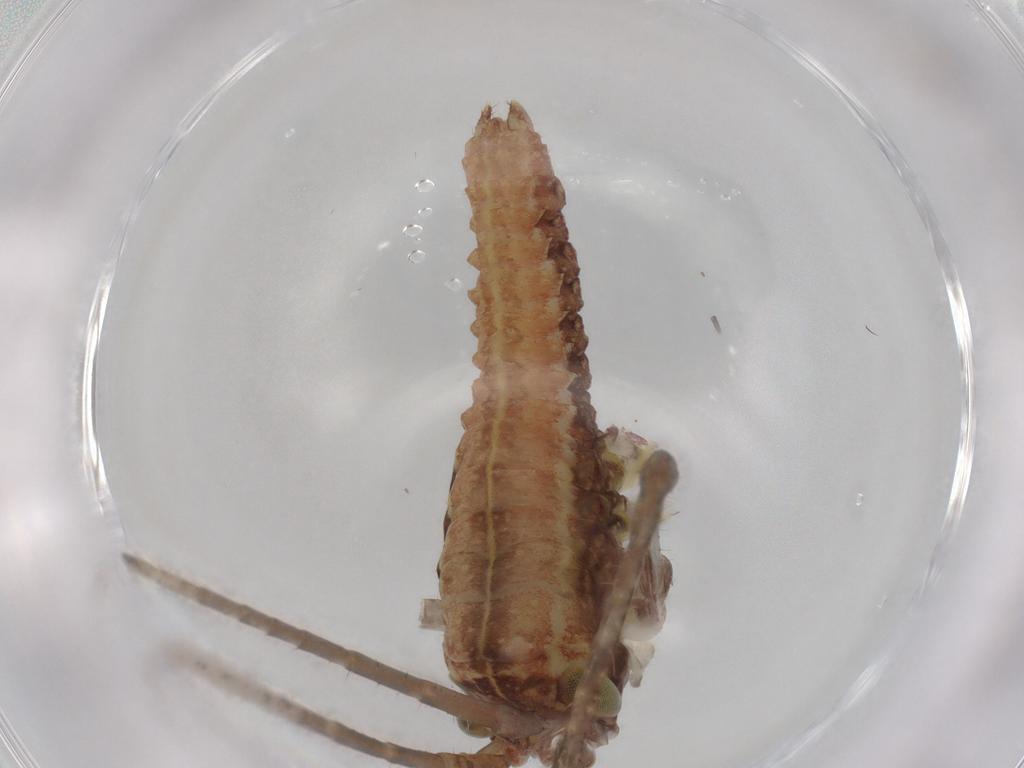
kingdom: Animalia
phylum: Arthropoda
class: Insecta
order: Orthoptera
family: Tettigoniidae
